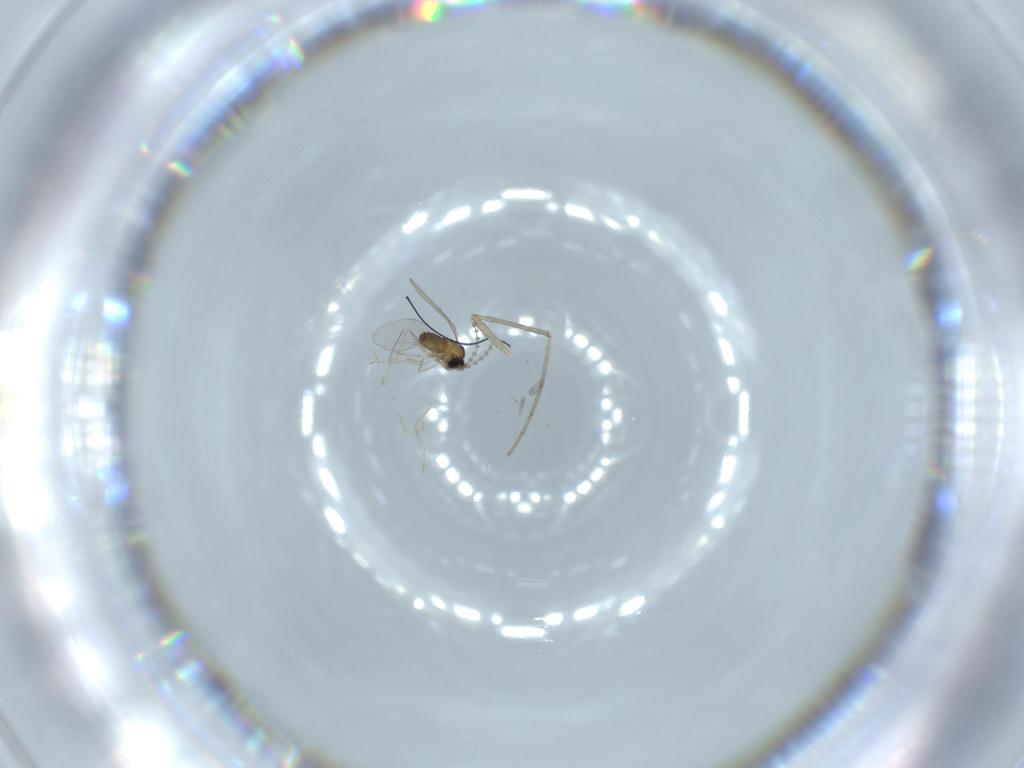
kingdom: Animalia
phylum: Arthropoda
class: Insecta
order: Diptera
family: Cecidomyiidae
